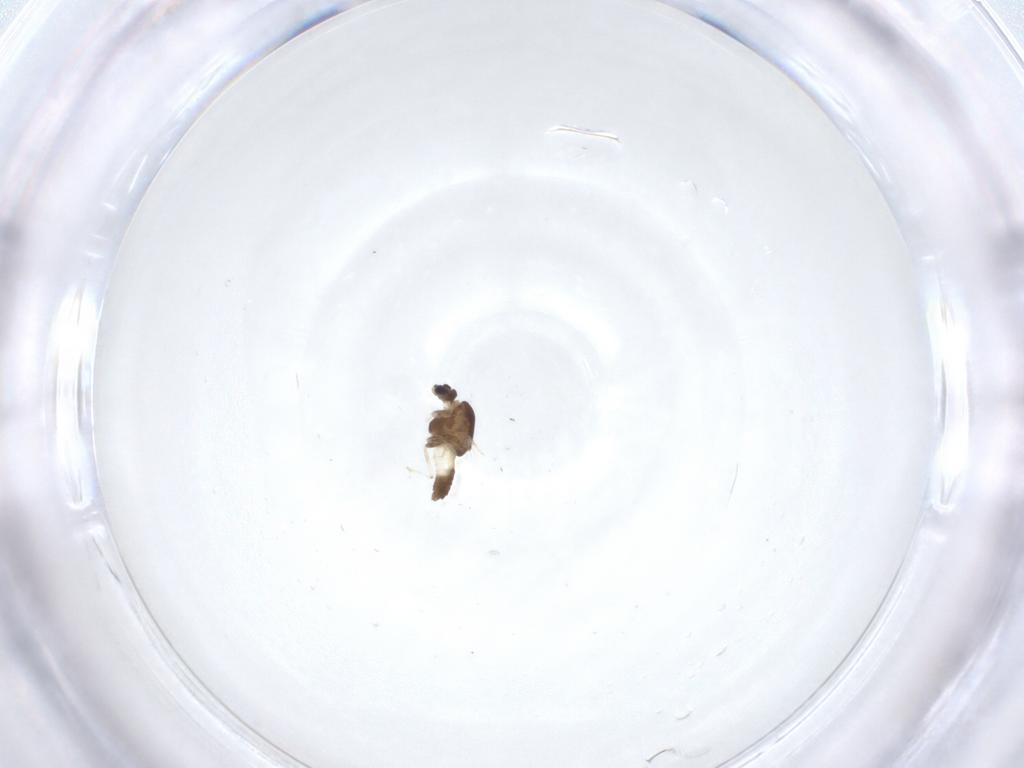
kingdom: Animalia
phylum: Arthropoda
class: Insecta
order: Diptera
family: Chironomidae
